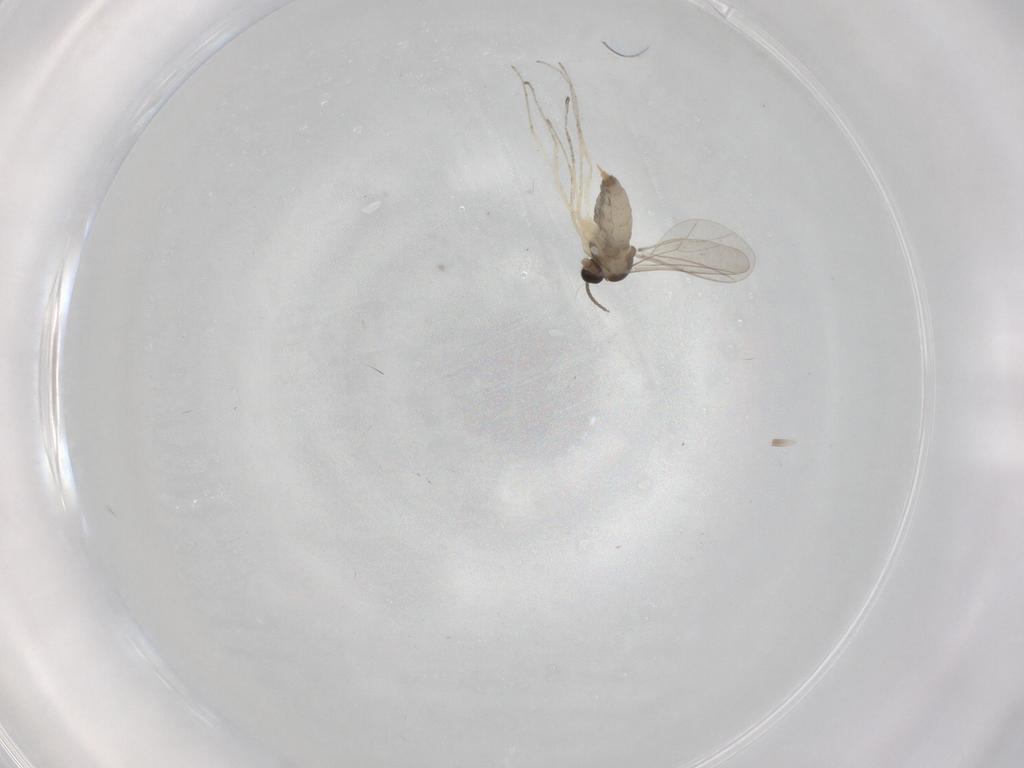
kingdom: Animalia
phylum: Arthropoda
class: Insecta
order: Diptera
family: Cecidomyiidae
